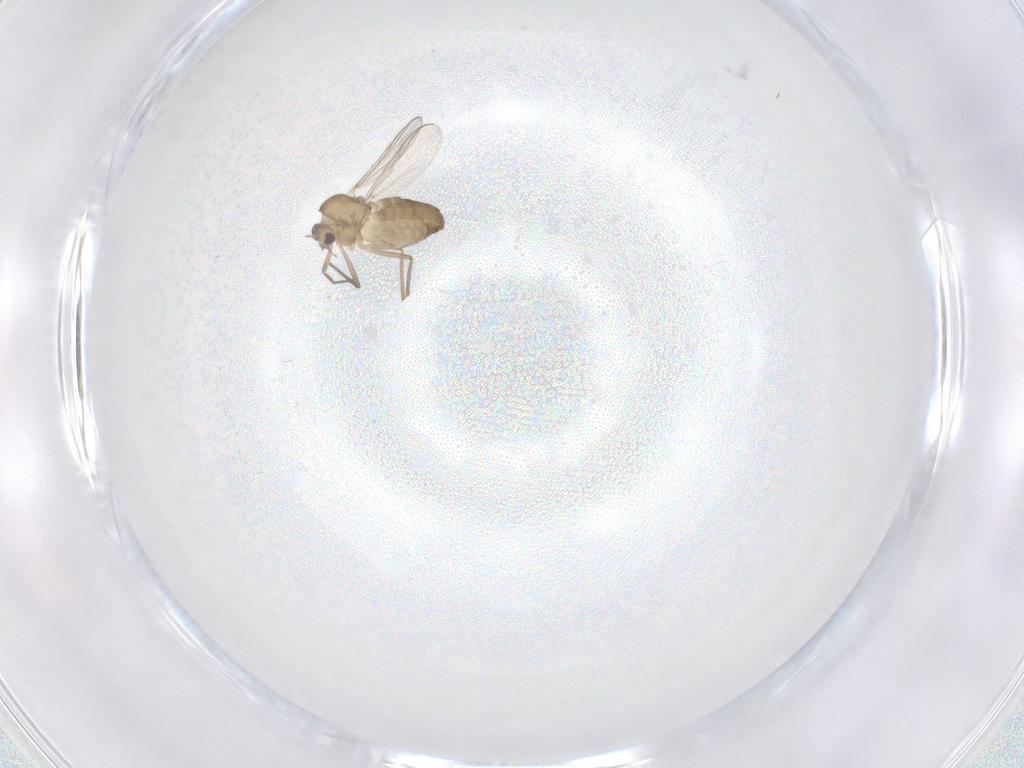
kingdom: Animalia
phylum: Arthropoda
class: Insecta
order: Diptera
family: Chironomidae
